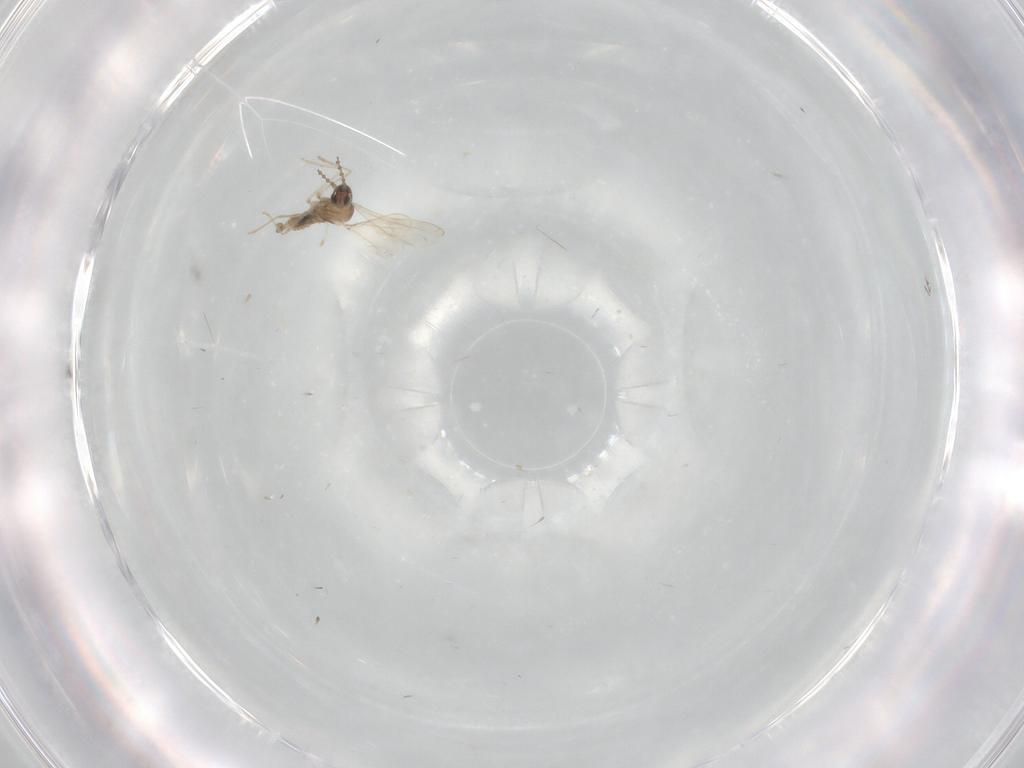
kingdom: Animalia
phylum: Arthropoda
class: Insecta
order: Diptera
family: Cecidomyiidae
